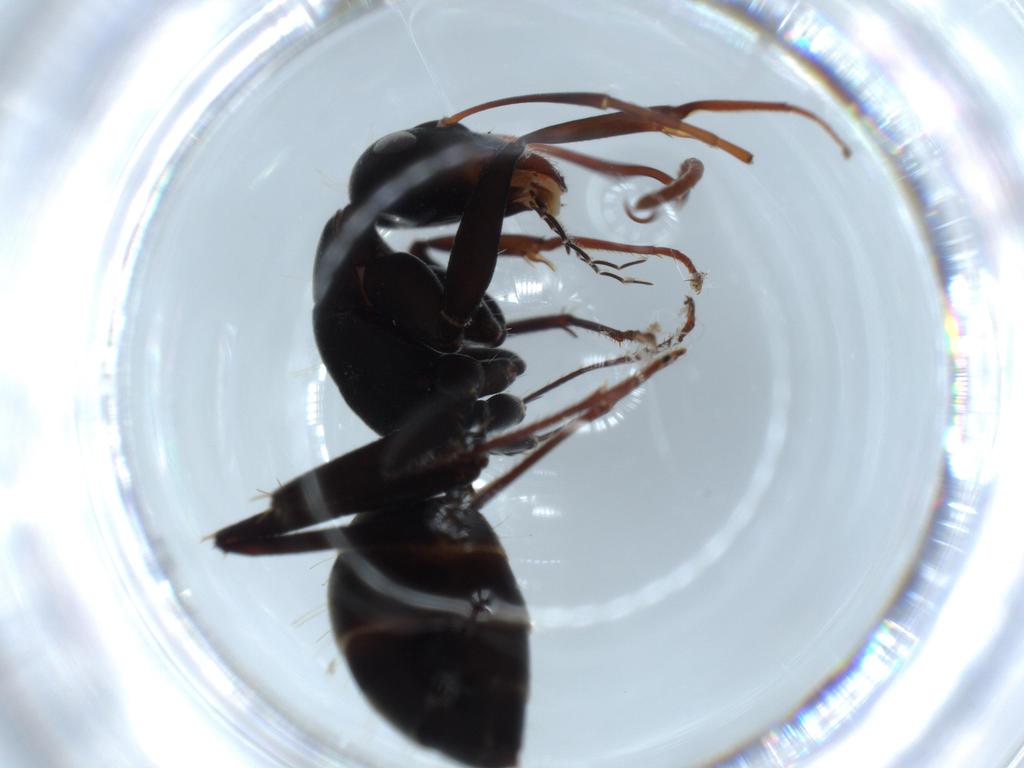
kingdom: Animalia
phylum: Arthropoda
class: Insecta
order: Hymenoptera
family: Formicidae
